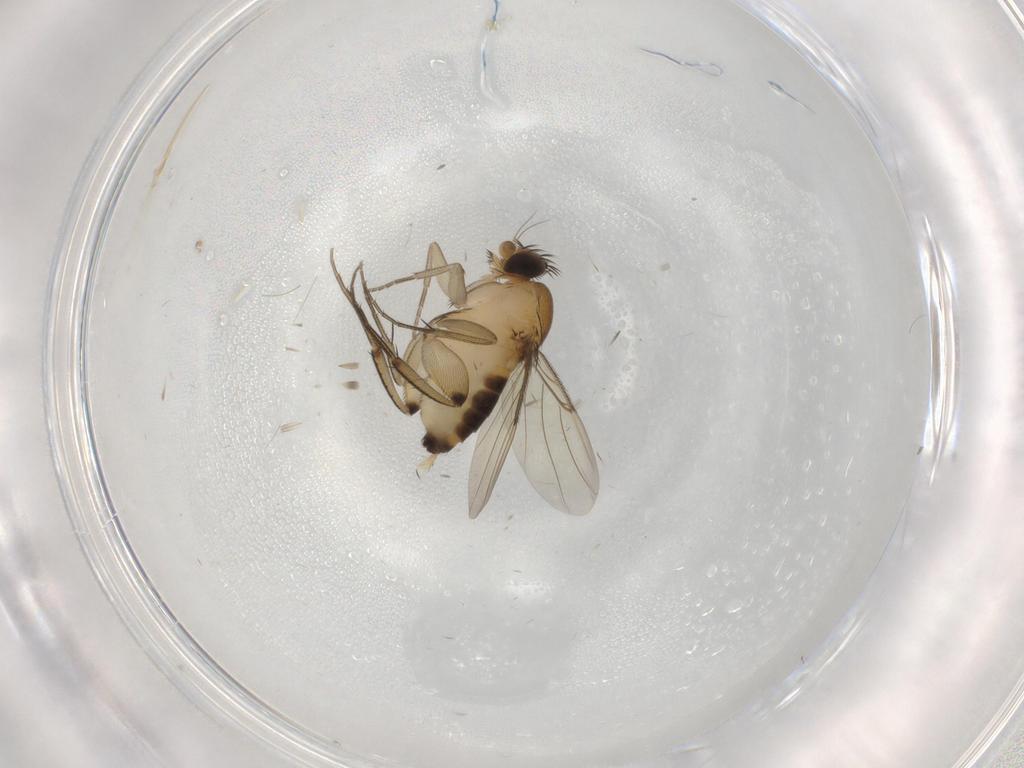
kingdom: Animalia
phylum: Arthropoda
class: Insecta
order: Diptera
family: Phoridae
